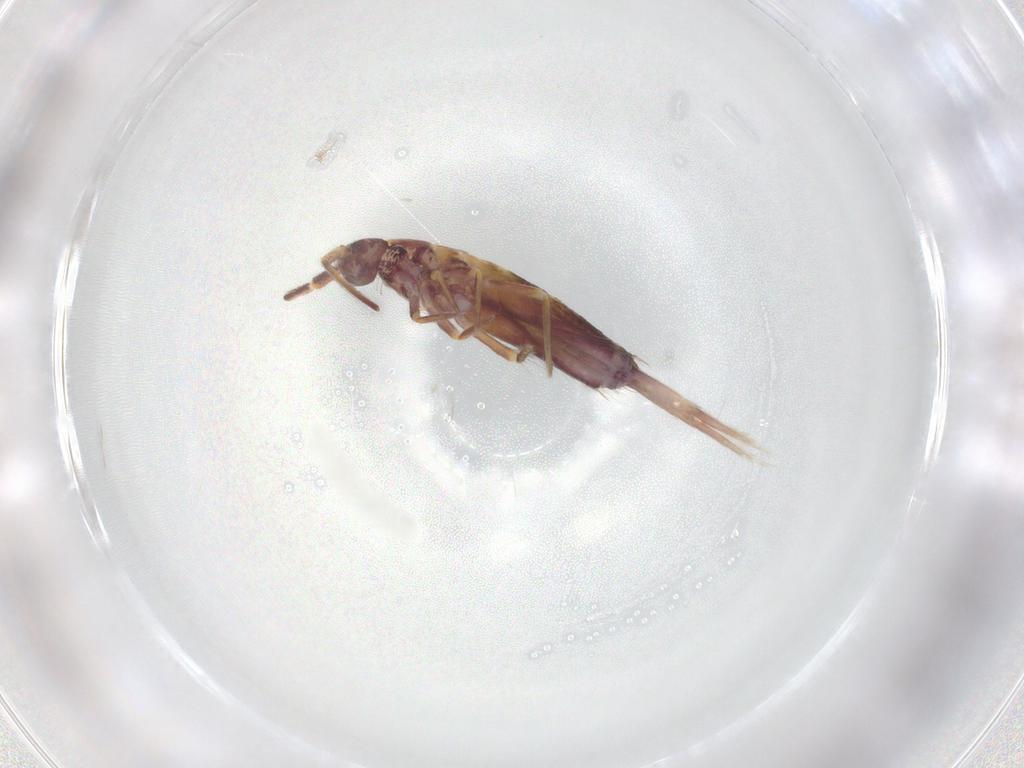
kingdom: Animalia
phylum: Arthropoda
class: Collembola
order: Entomobryomorpha
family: Entomobryidae
